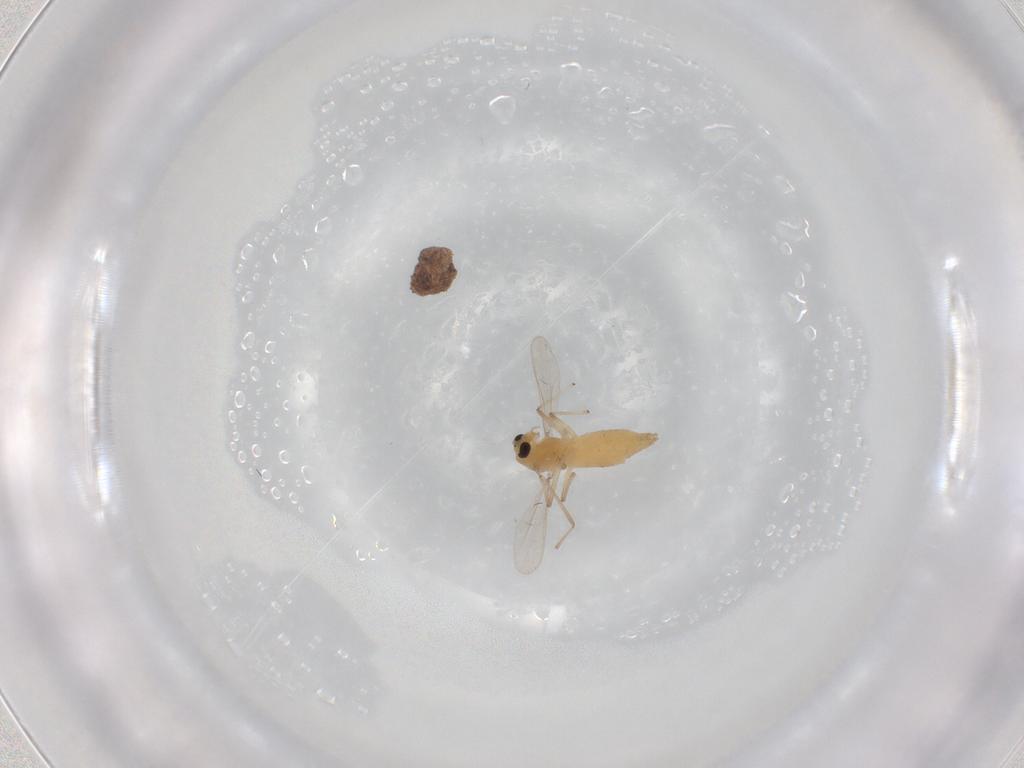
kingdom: Animalia
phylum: Arthropoda
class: Insecta
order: Diptera
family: Chironomidae
